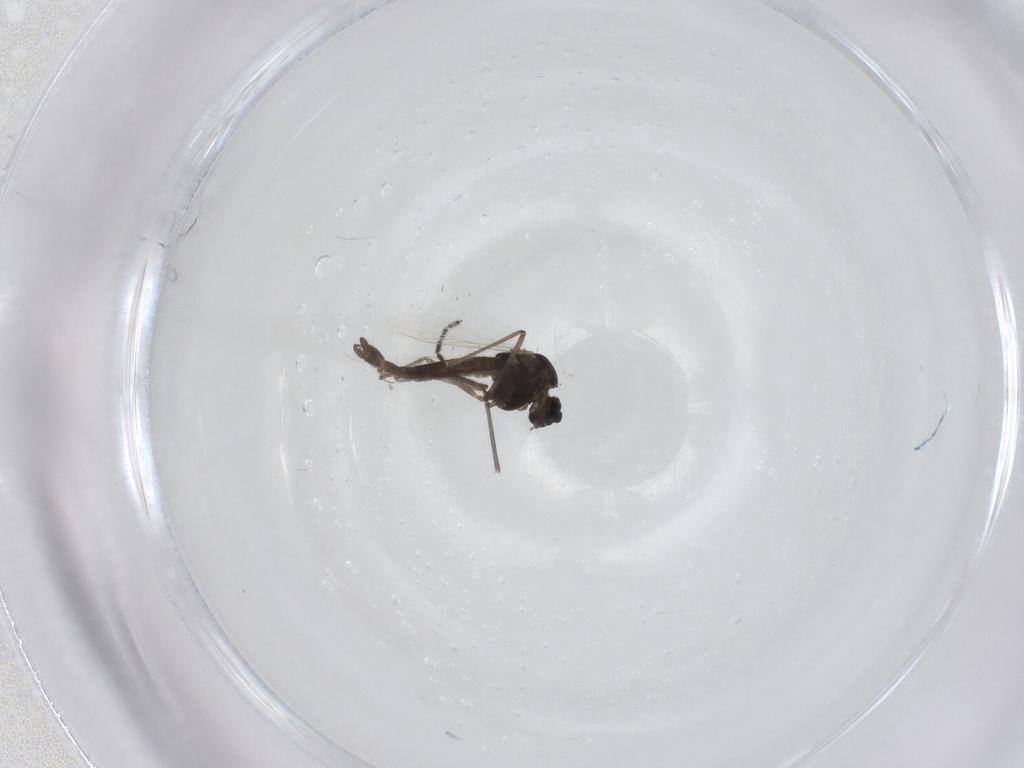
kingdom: Animalia
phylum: Arthropoda
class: Insecta
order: Diptera
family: Chironomidae
